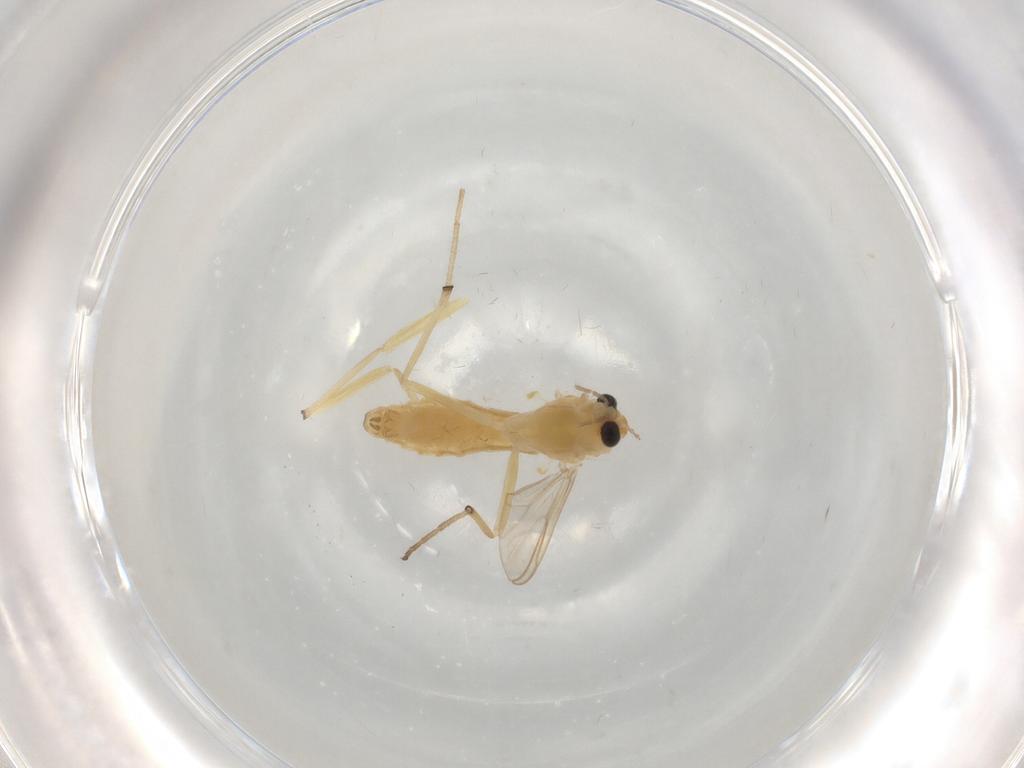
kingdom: Animalia
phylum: Arthropoda
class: Insecta
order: Diptera
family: Chironomidae
